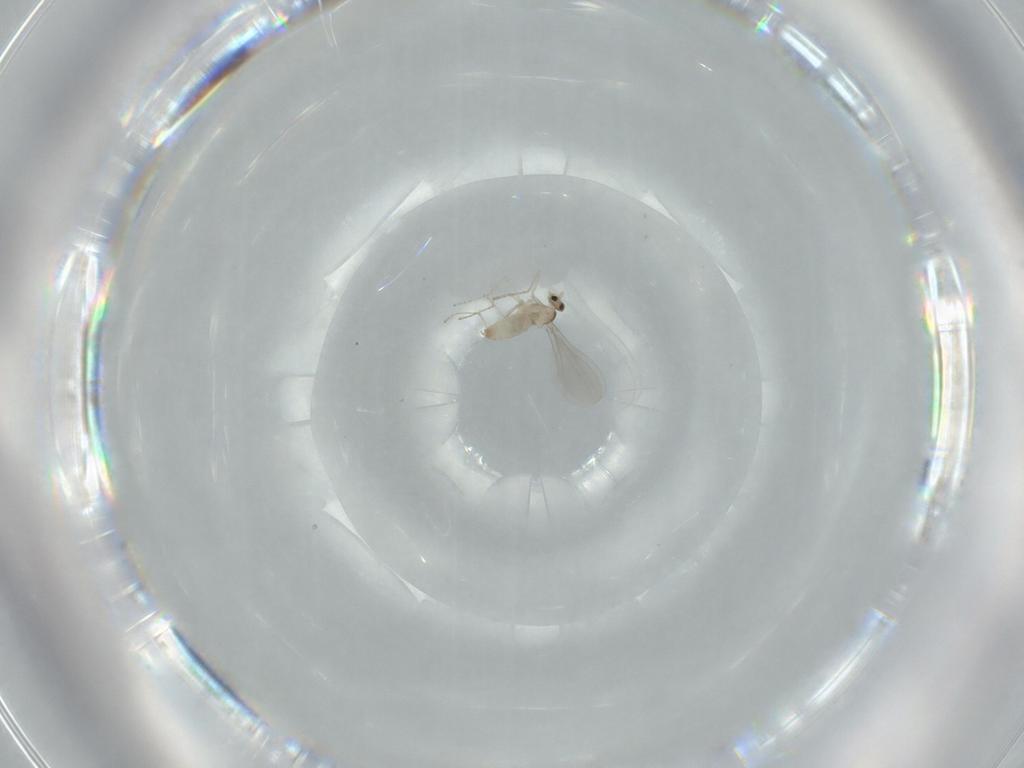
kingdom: Animalia
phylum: Arthropoda
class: Insecta
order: Diptera
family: Cecidomyiidae
